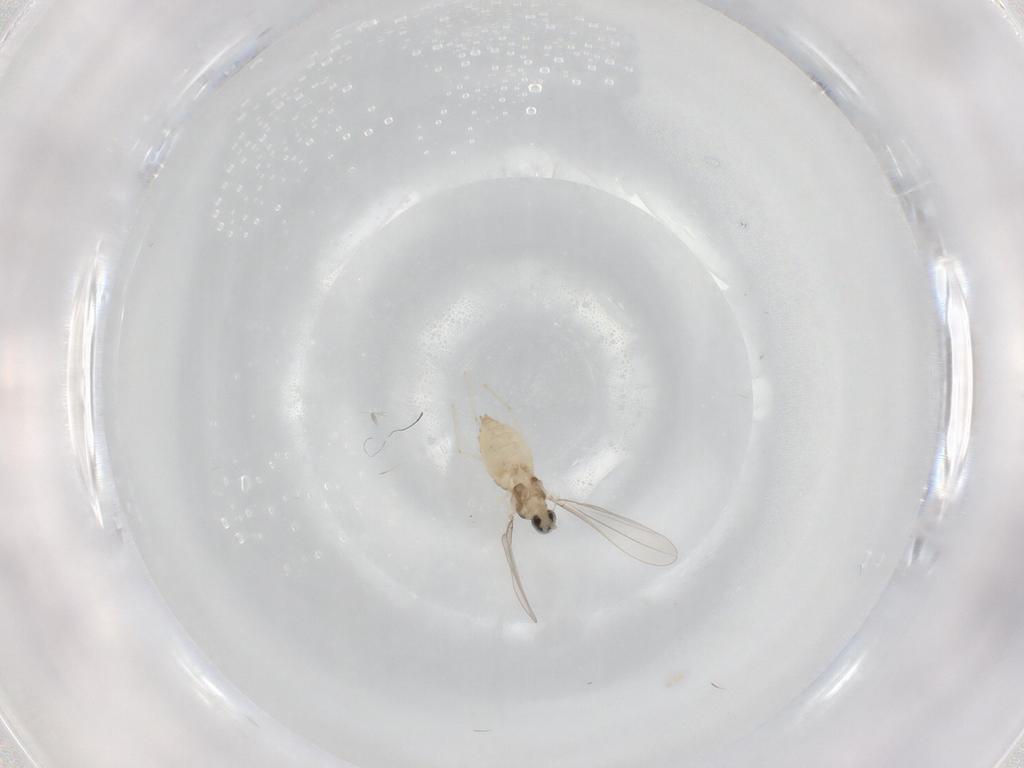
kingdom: Animalia
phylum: Arthropoda
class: Insecta
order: Diptera
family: Cecidomyiidae
